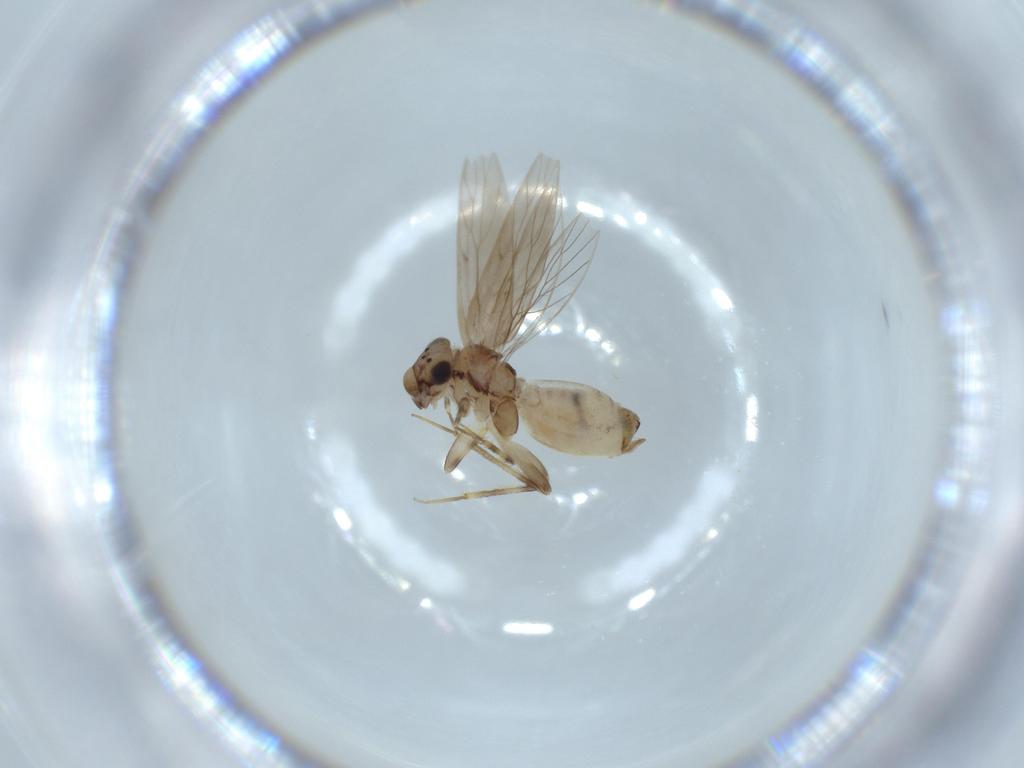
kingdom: Animalia
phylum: Arthropoda
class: Insecta
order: Psocodea
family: Lepidopsocidae
